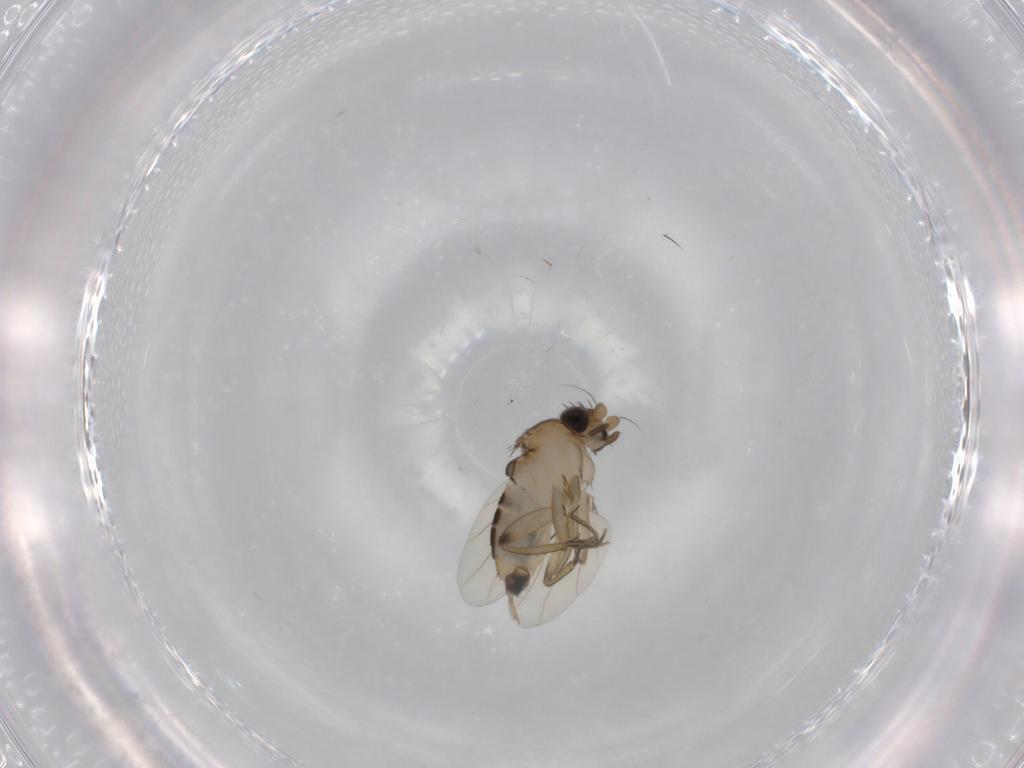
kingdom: Animalia
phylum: Arthropoda
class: Insecta
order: Diptera
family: Phoridae
